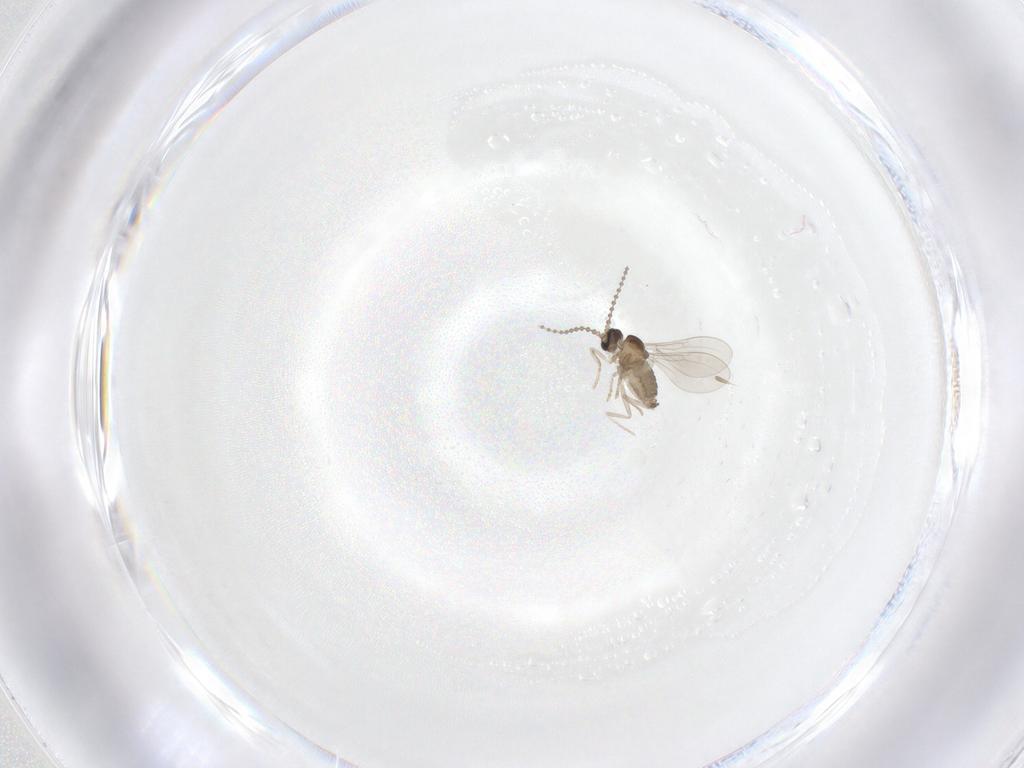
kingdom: Animalia
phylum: Arthropoda
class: Insecta
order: Diptera
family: Cecidomyiidae
